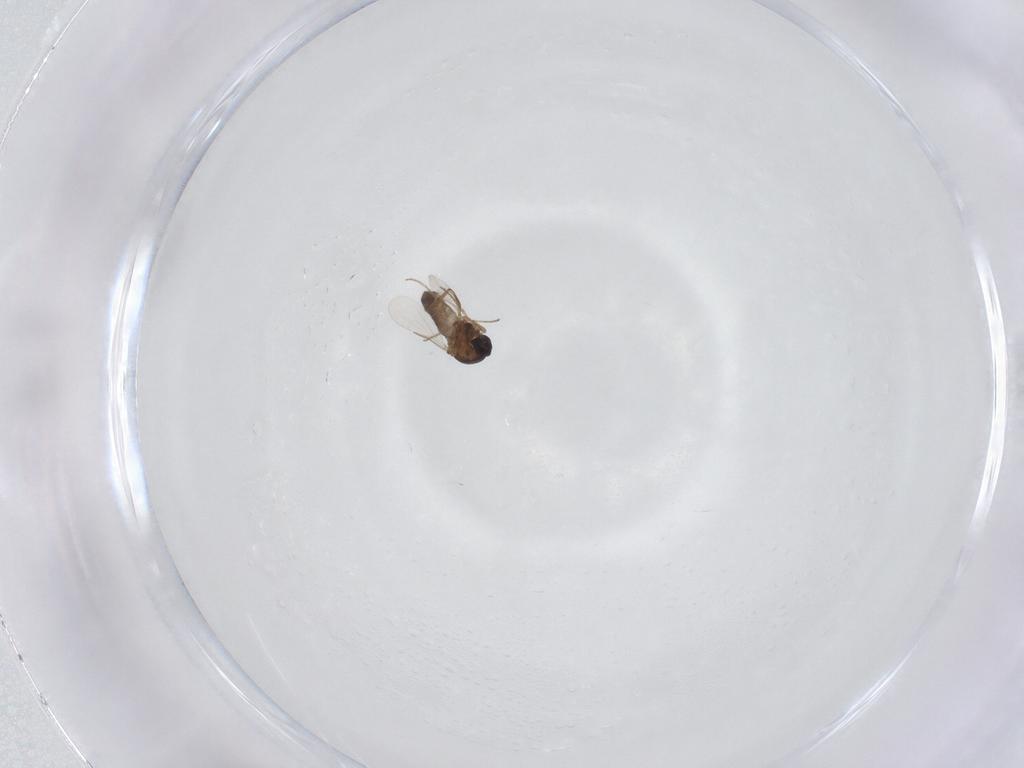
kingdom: Animalia
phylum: Arthropoda
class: Insecta
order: Diptera
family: Ceratopogonidae
